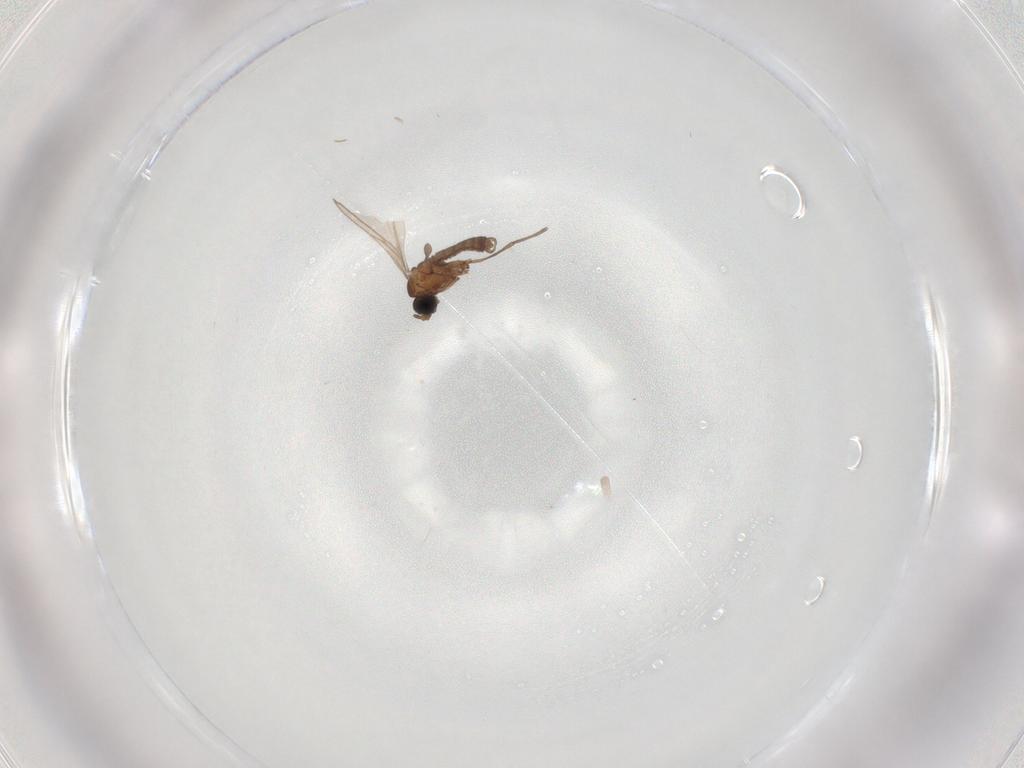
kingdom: Animalia
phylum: Arthropoda
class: Insecta
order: Diptera
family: Sciaridae
